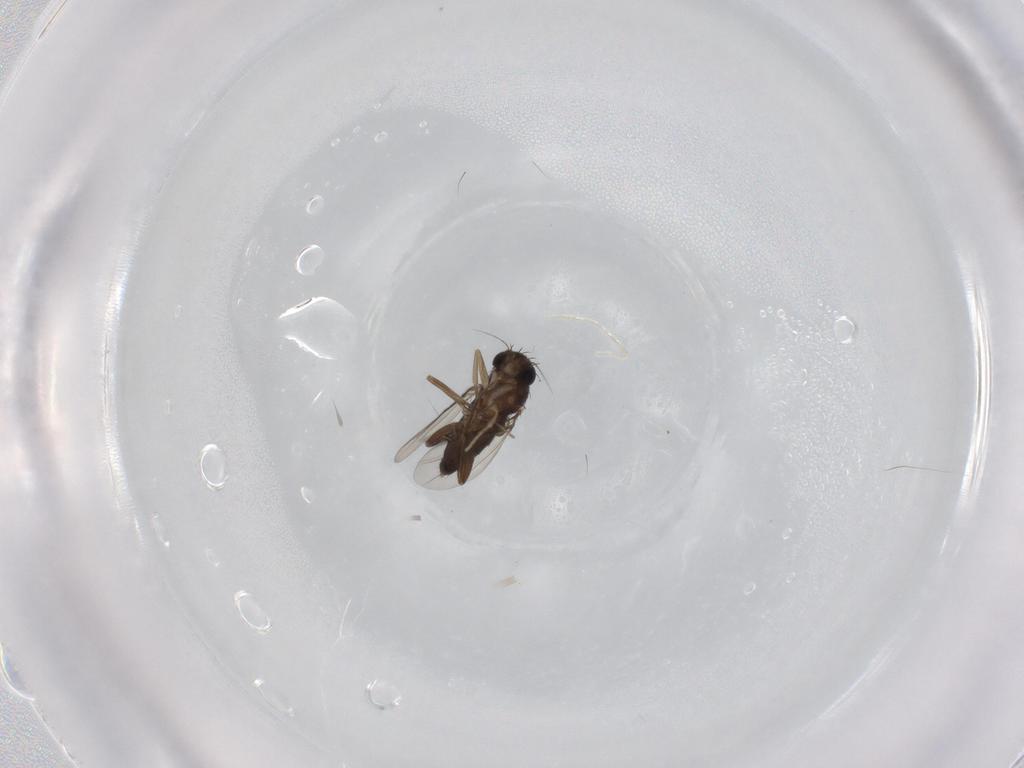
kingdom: Animalia
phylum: Arthropoda
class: Insecta
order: Diptera
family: Phoridae
